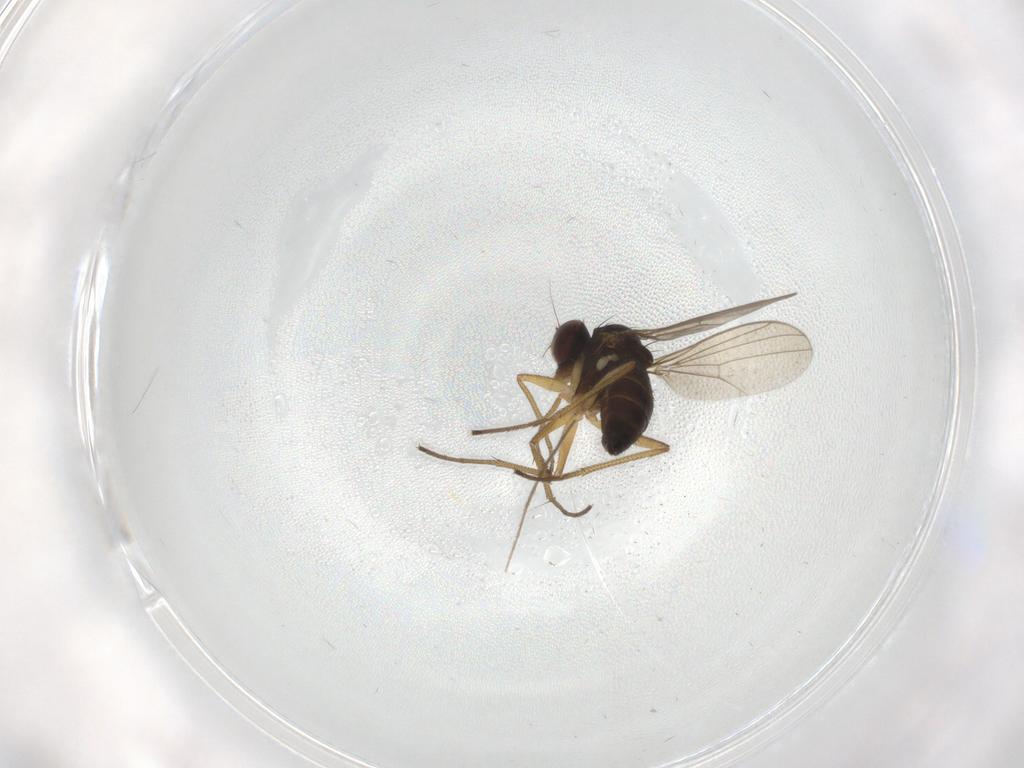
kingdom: Animalia
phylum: Arthropoda
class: Insecta
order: Diptera
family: Dolichopodidae
